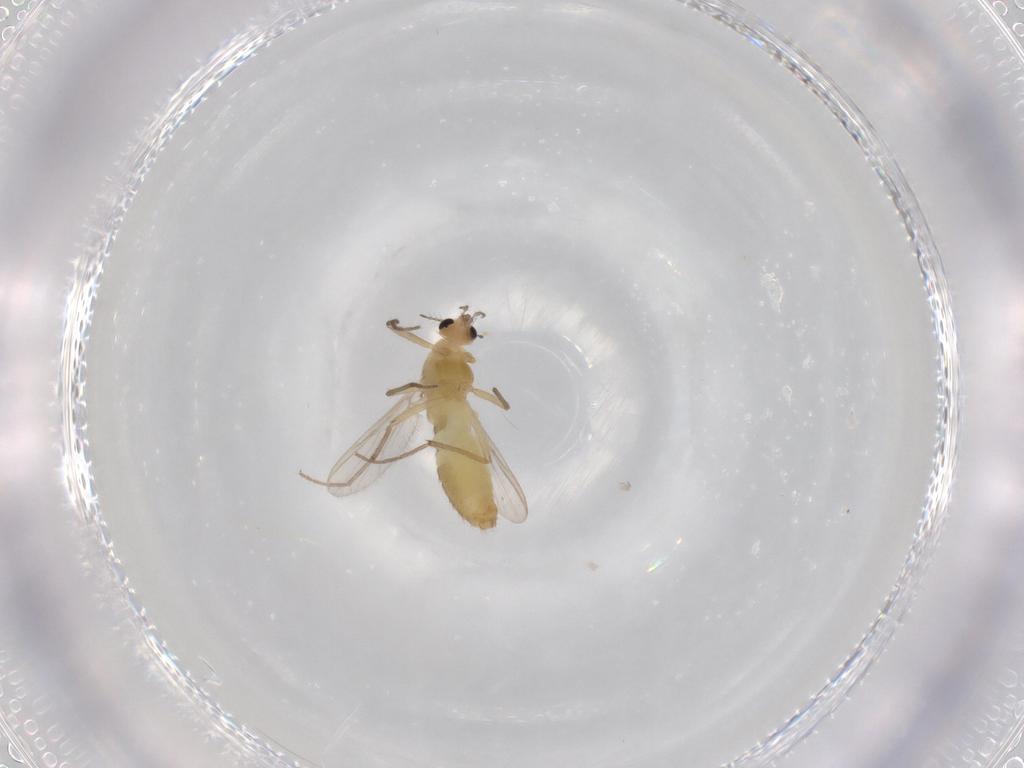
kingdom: Animalia
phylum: Arthropoda
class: Insecta
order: Diptera
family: Chironomidae
